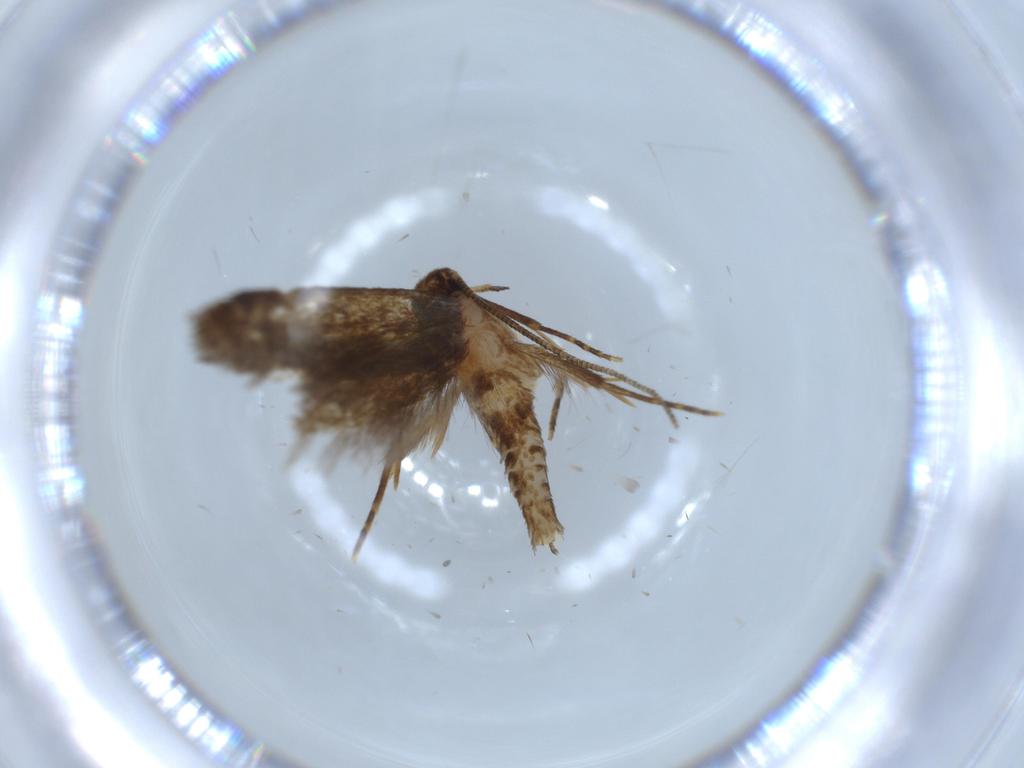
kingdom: Animalia
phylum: Arthropoda
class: Insecta
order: Lepidoptera
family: Tineidae
